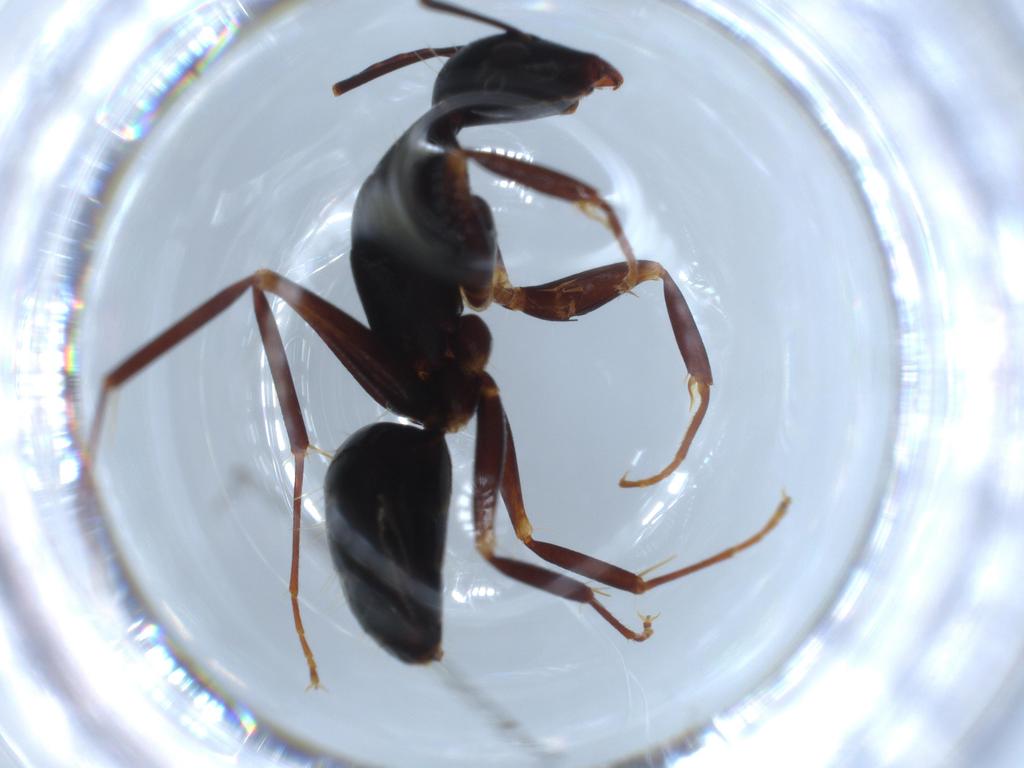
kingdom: Animalia
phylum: Arthropoda
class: Insecta
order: Hymenoptera
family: Formicidae
